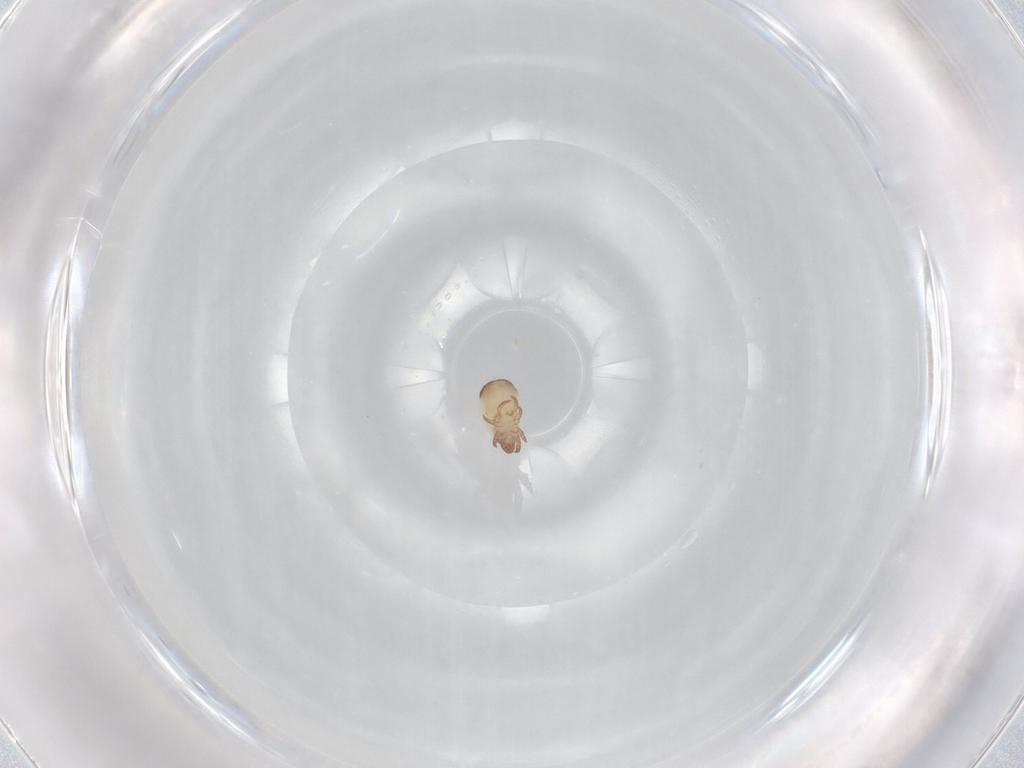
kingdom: Animalia
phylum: Arthropoda
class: Arachnida
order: Sarcoptiformes
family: Trhypochthoniidae
